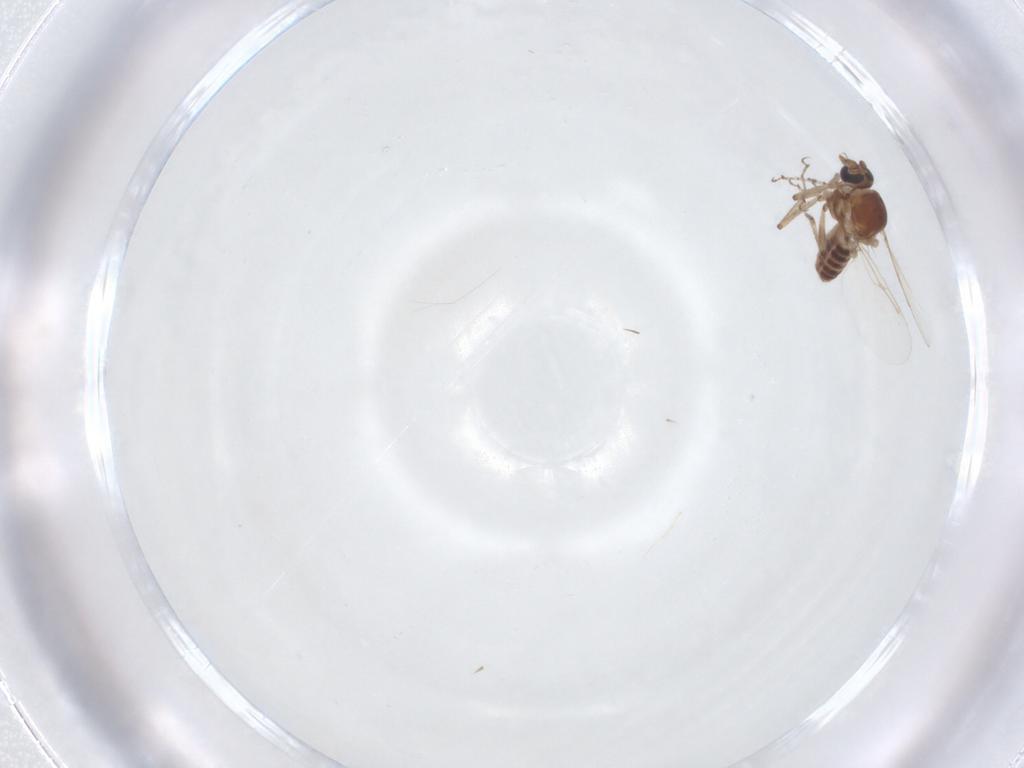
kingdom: Animalia
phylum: Arthropoda
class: Insecta
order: Diptera
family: Ceratopogonidae
